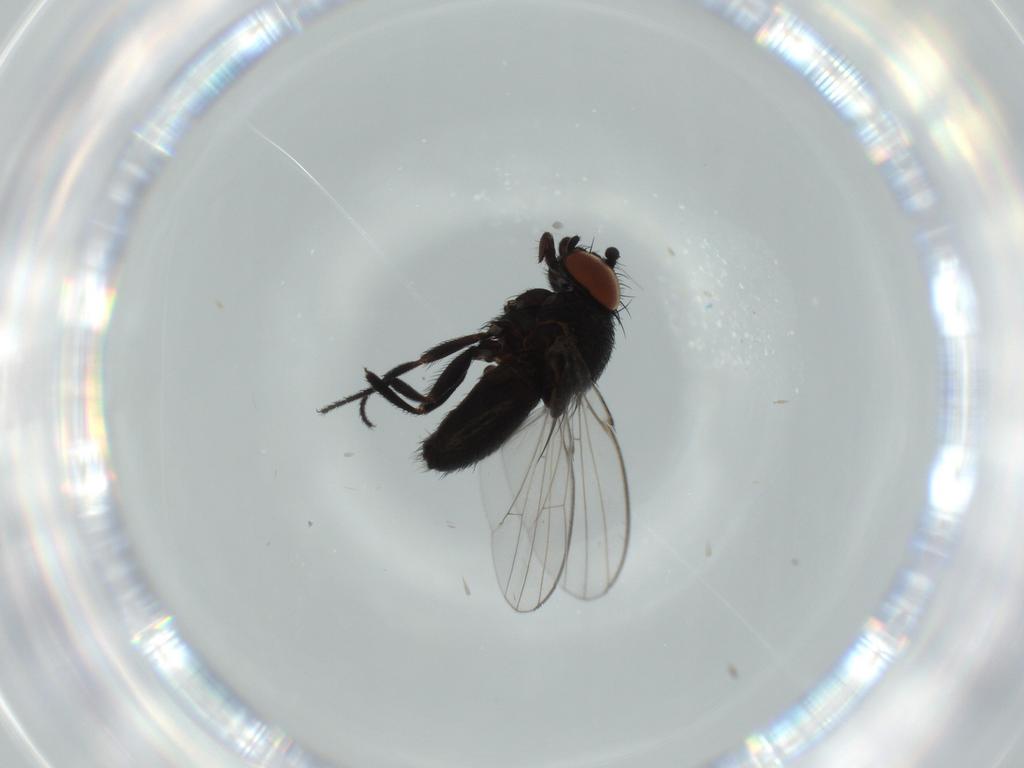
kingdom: Animalia
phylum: Arthropoda
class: Insecta
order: Diptera
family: Milichiidae
